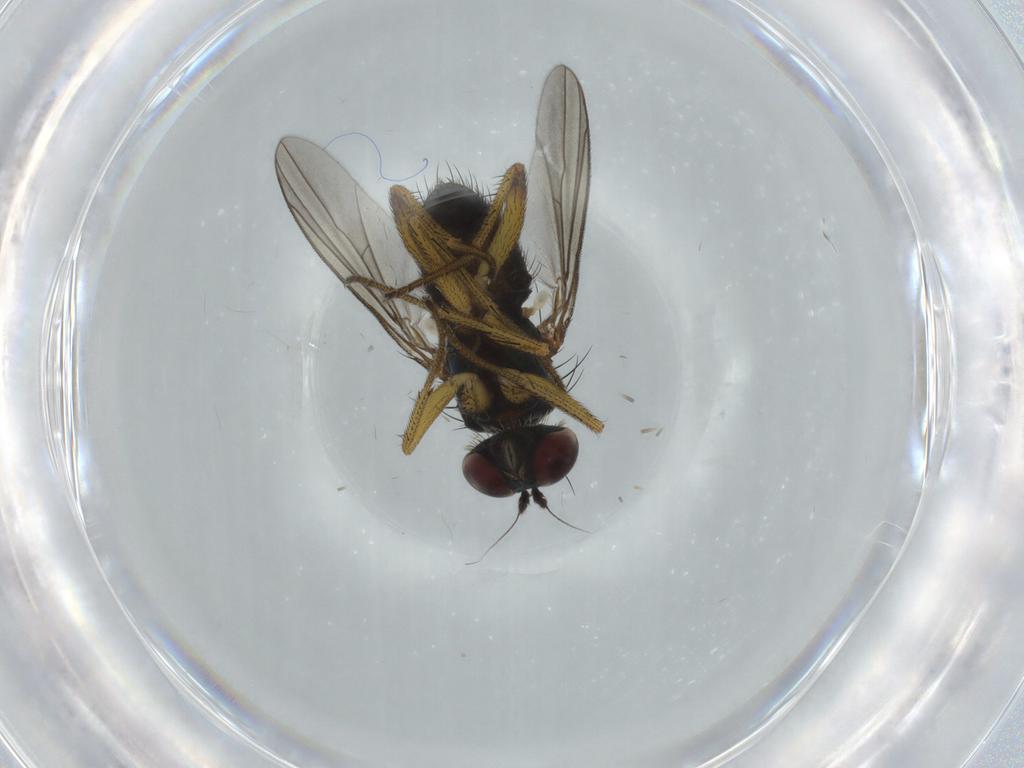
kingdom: Animalia
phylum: Arthropoda
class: Insecta
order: Diptera
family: Dolichopodidae
